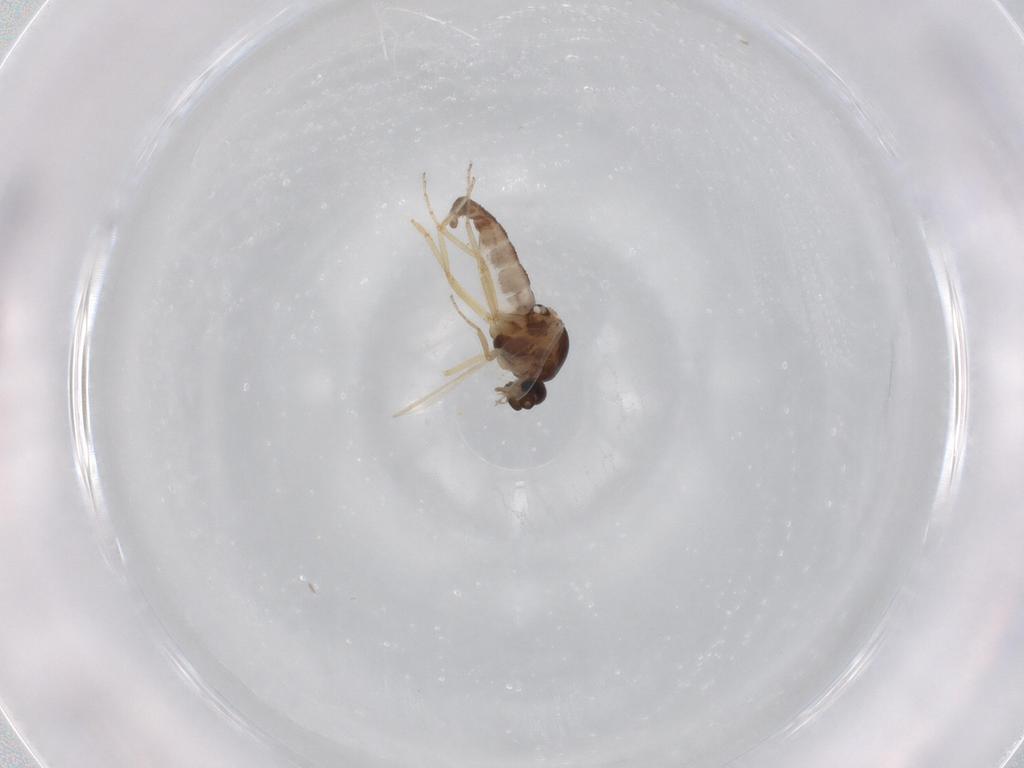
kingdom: Animalia
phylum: Arthropoda
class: Insecta
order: Diptera
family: Ceratopogonidae
